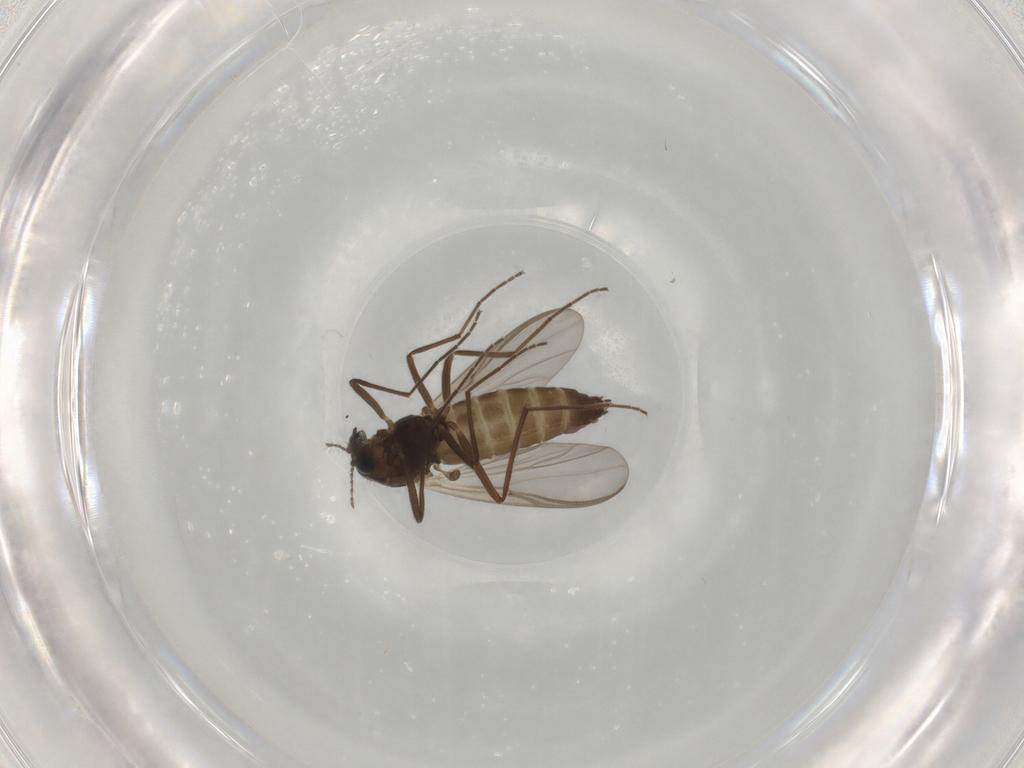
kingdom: Animalia
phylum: Arthropoda
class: Insecta
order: Diptera
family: Chironomidae
